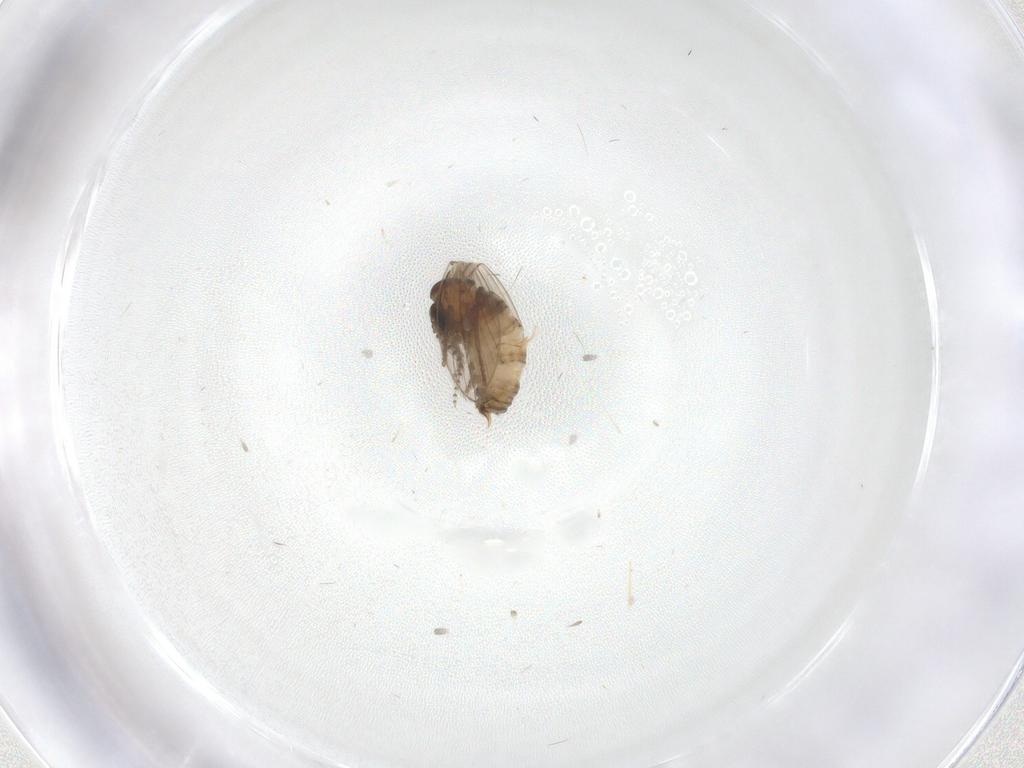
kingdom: Animalia
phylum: Arthropoda
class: Insecta
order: Diptera
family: Psychodidae
